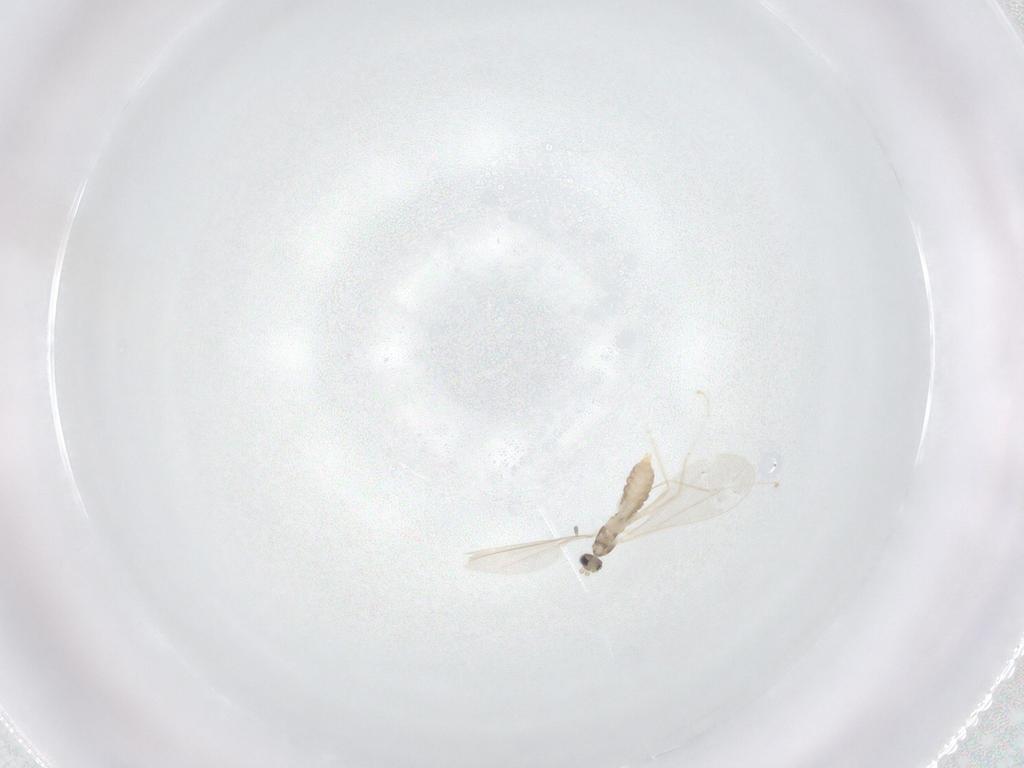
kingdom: Animalia
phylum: Arthropoda
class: Insecta
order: Diptera
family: Cecidomyiidae
